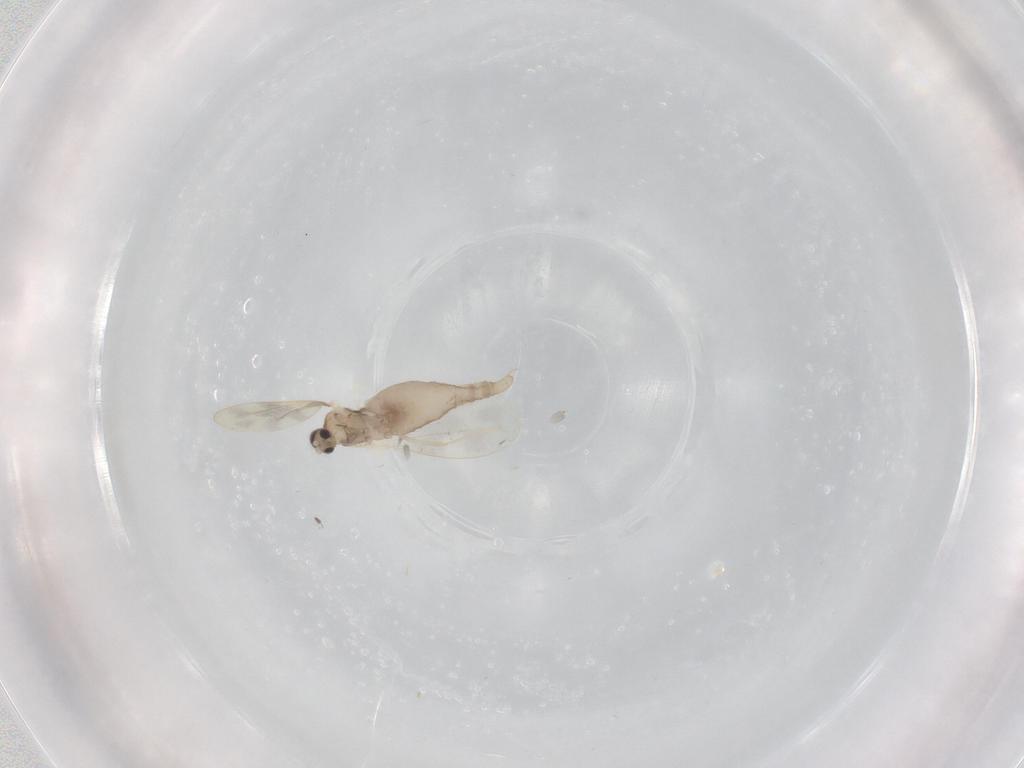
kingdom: Animalia
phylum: Arthropoda
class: Insecta
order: Diptera
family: Cecidomyiidae
